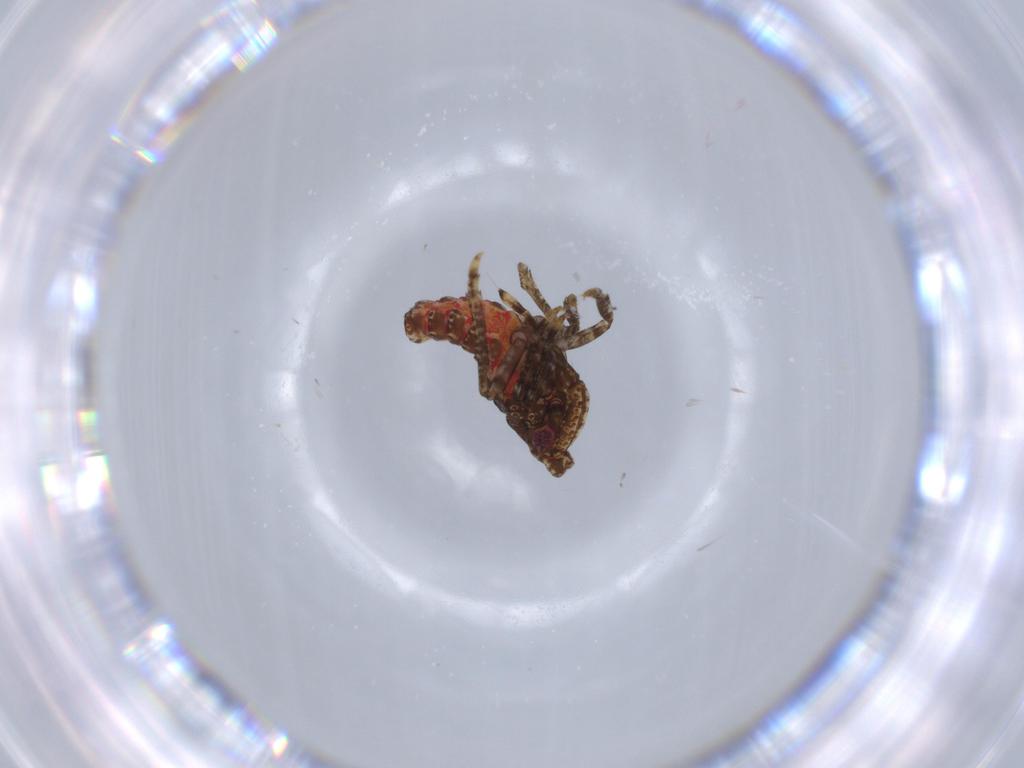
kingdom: Animalia
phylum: Arthropoda
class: Insecta
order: Hemiptera
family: Fulgoroidea_incertae_sedis
